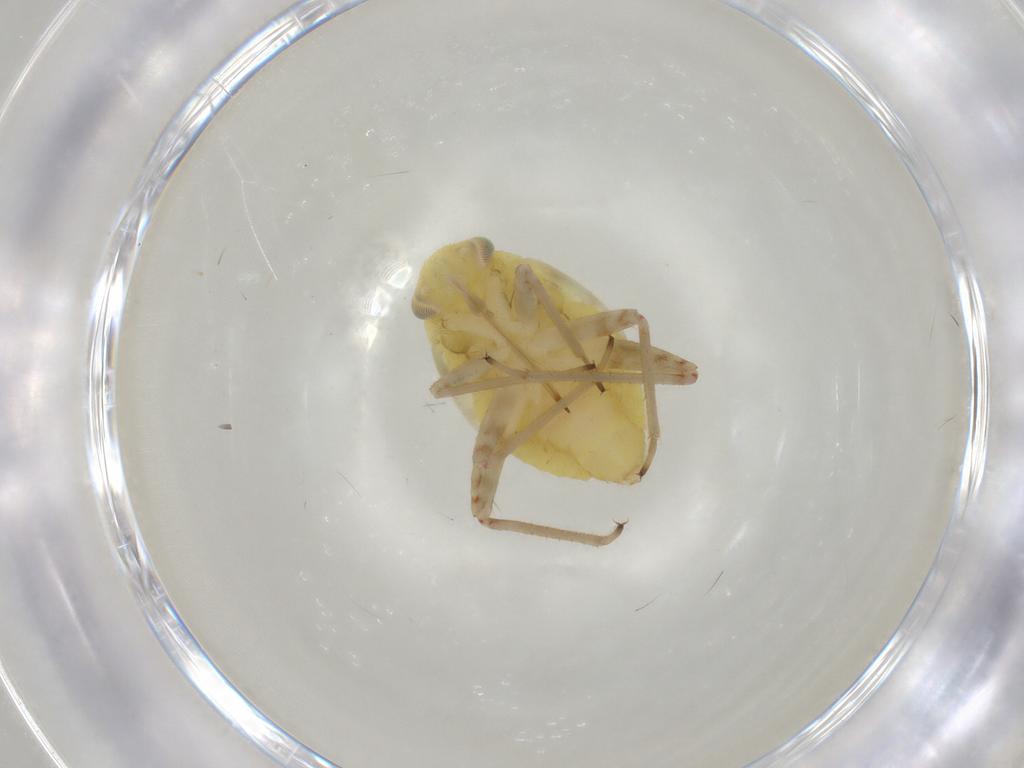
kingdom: Animalia
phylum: Arthropoda
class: Insecta
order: Hemiptera
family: Miridae
